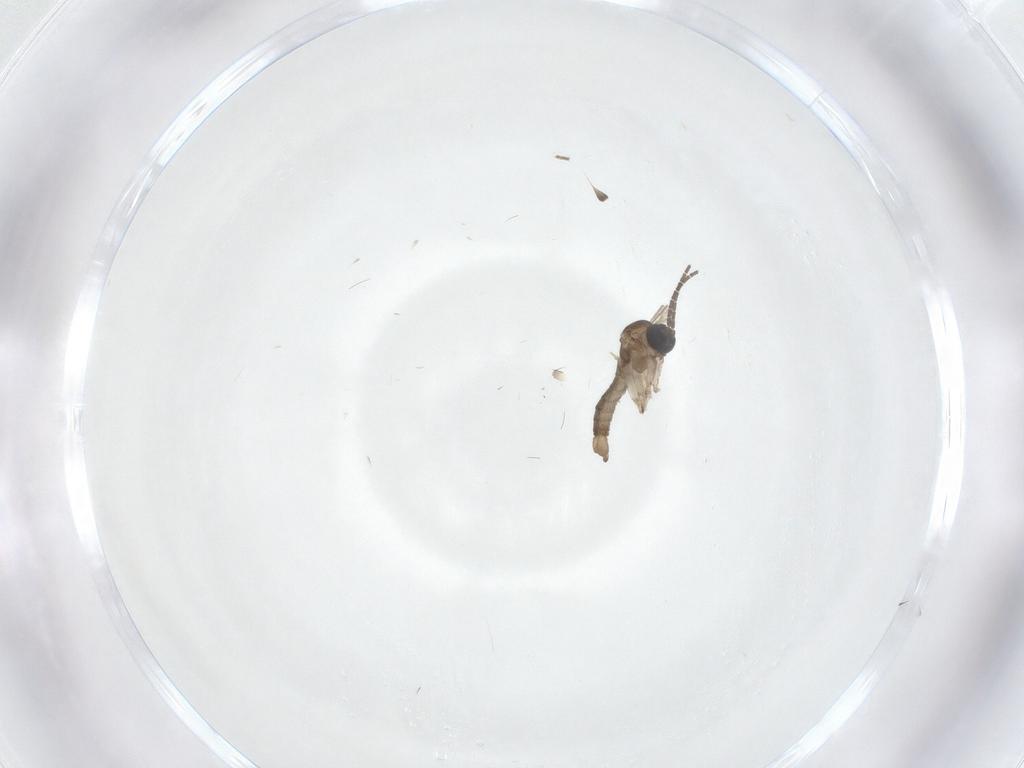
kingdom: Animalia
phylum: Arthropoda
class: Insecta
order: Diptera
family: Sciaridae
